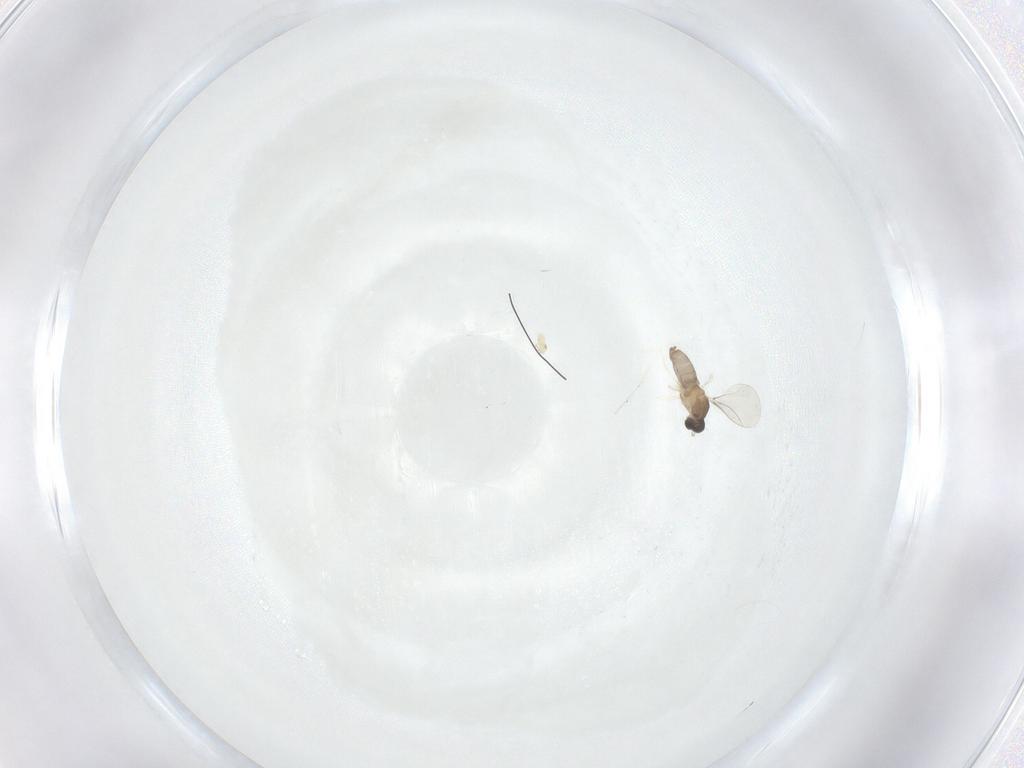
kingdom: Animalia
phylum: Arthropoda
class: Insecta
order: Diptera
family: Cecidomyiidae
